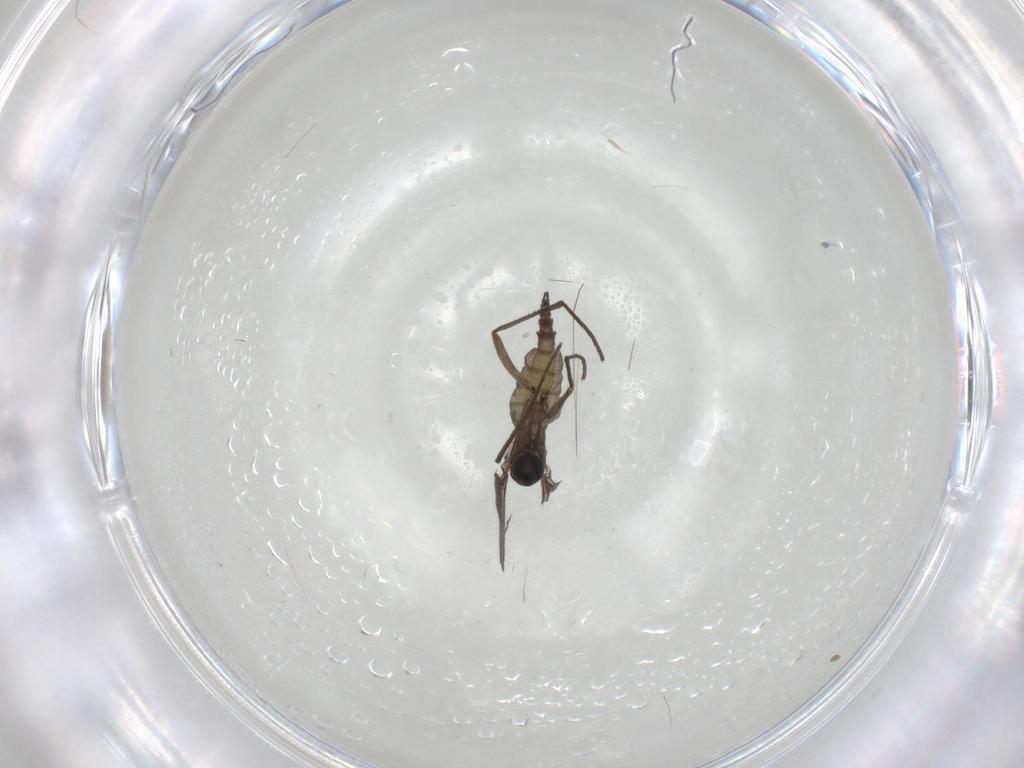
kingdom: Animalia
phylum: Arthropoda
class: Insecta
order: Diptera
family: Sciaridae
